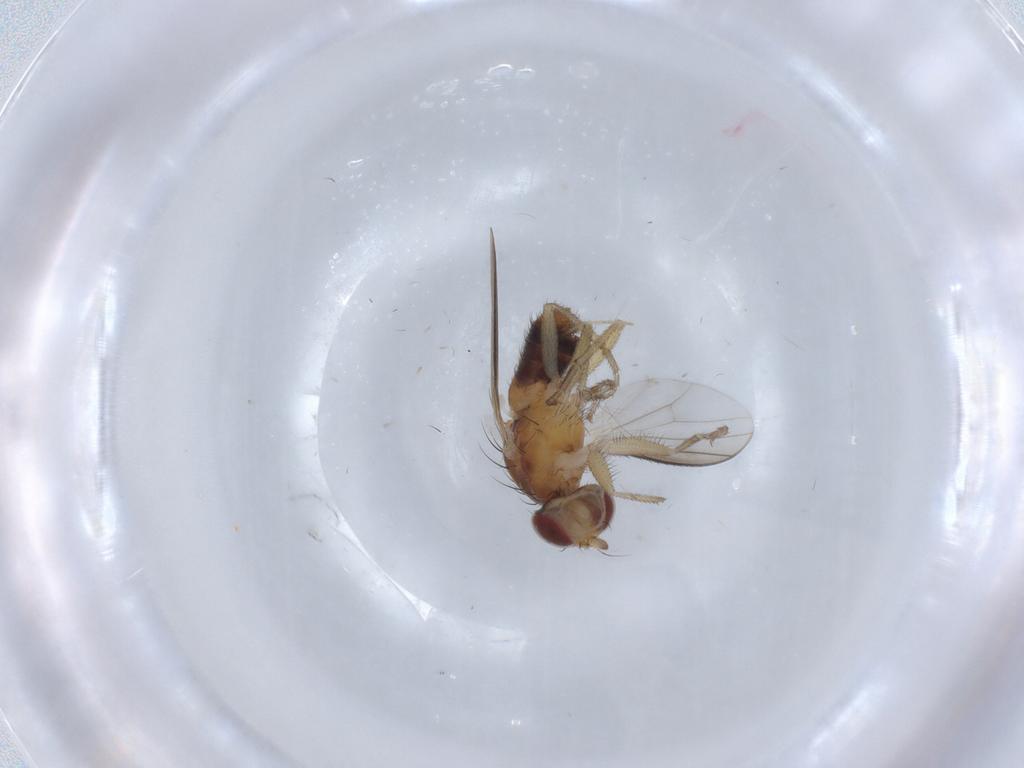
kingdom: Animalia
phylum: Arthropoda
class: Insecta
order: Diptera
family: Heleomyzidae
